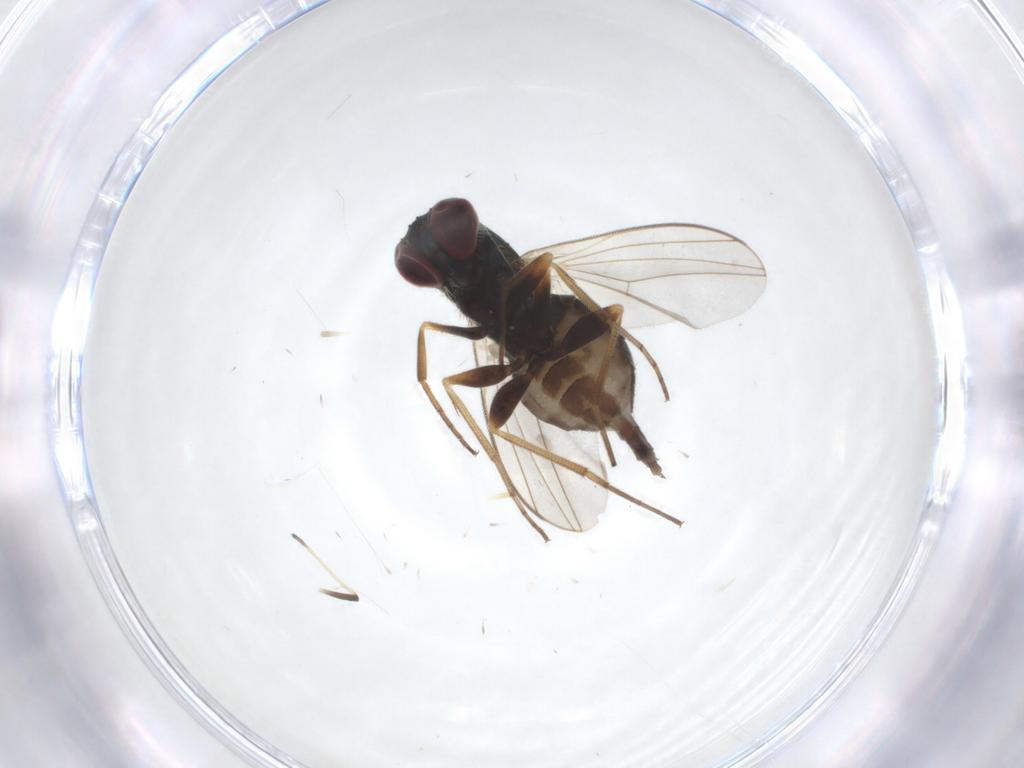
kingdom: Animalia
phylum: Arthropoda
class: Insecta
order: Diptera
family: Dolichopodidae
